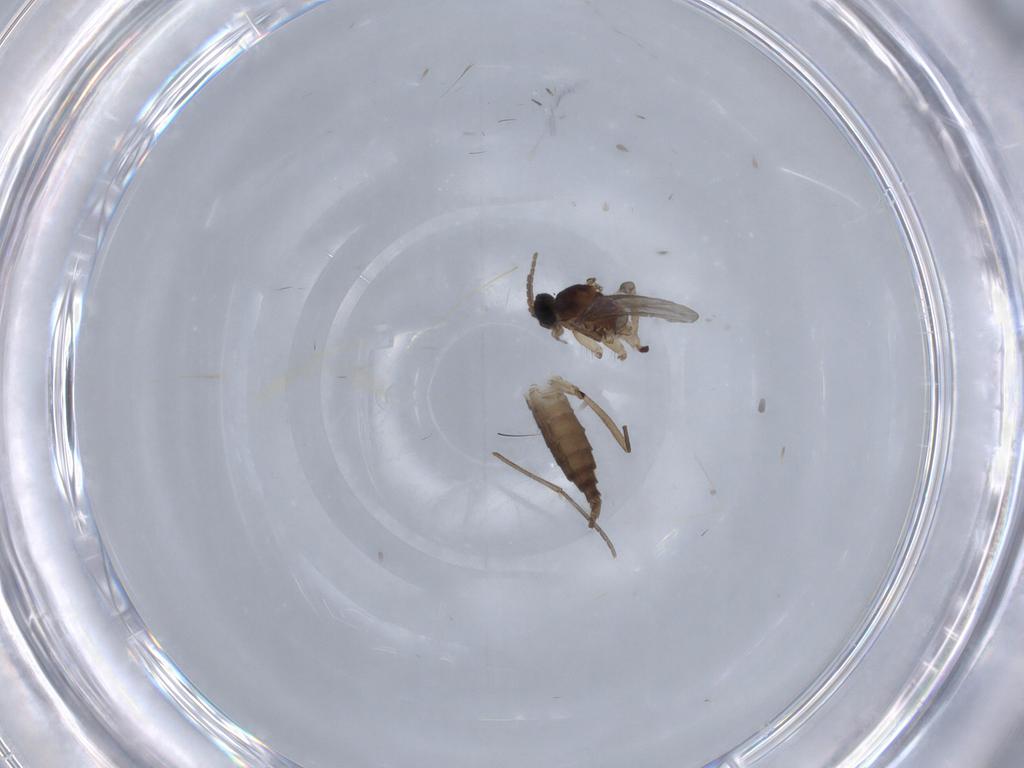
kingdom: Animalia
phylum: Arthropoda
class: Insecta
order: Diptera
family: Sciaridae
